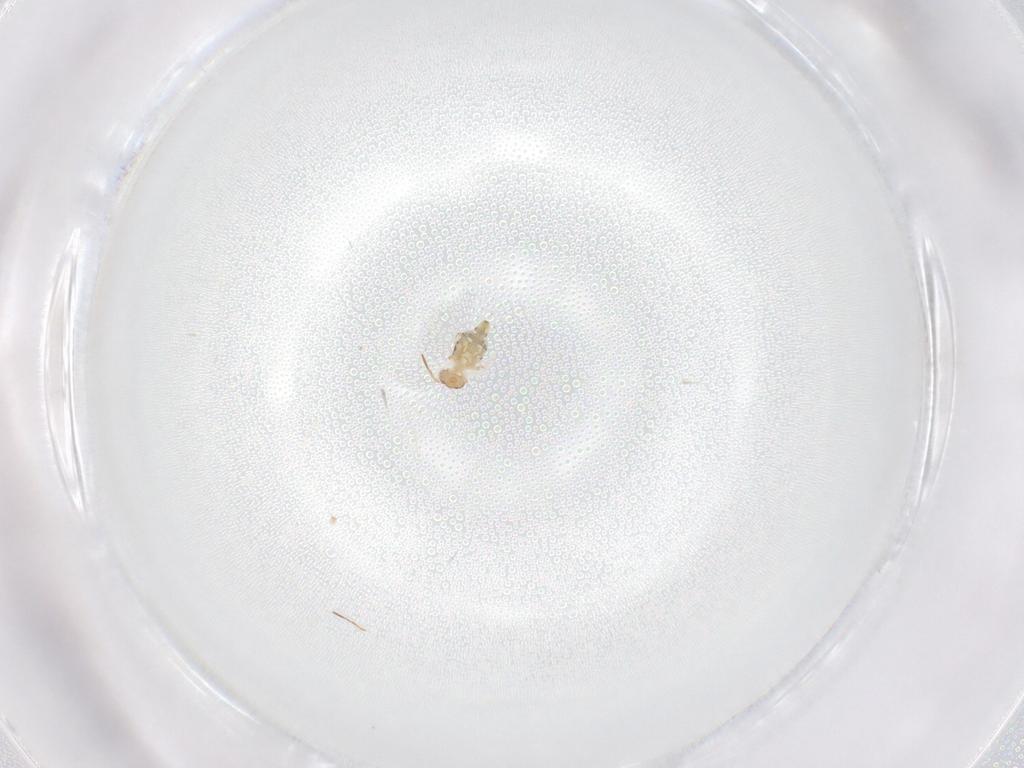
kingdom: Animalia
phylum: Arthropoda
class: Collembola
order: Symphypleona
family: Bourletiellidae
